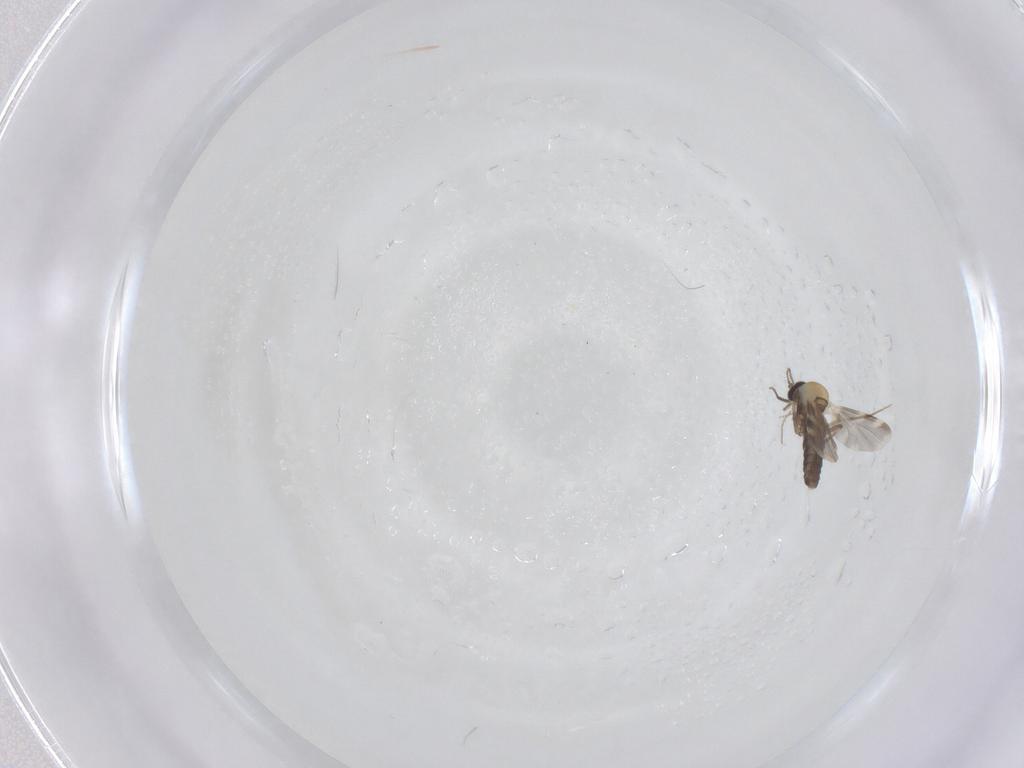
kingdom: Animalia
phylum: Arthropoda
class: Insecta
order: Diptera
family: Ceratopogonidae
